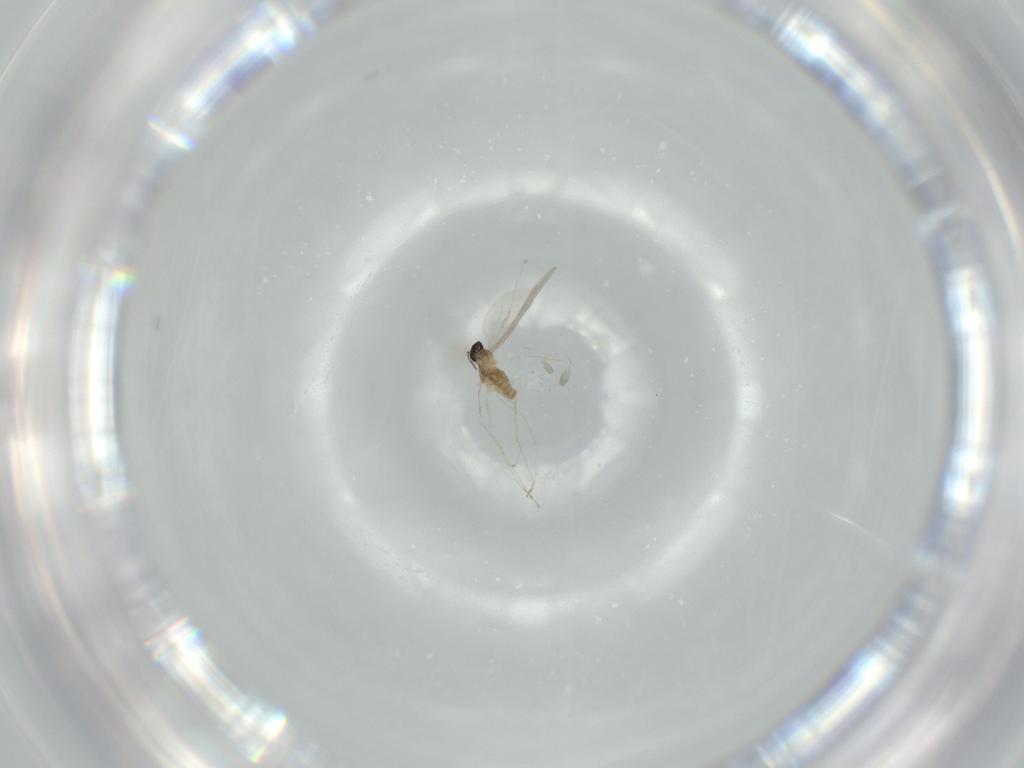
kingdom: Animalia
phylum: Arthropoda
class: Insecta
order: Diptera
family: Cecidomyiidae
